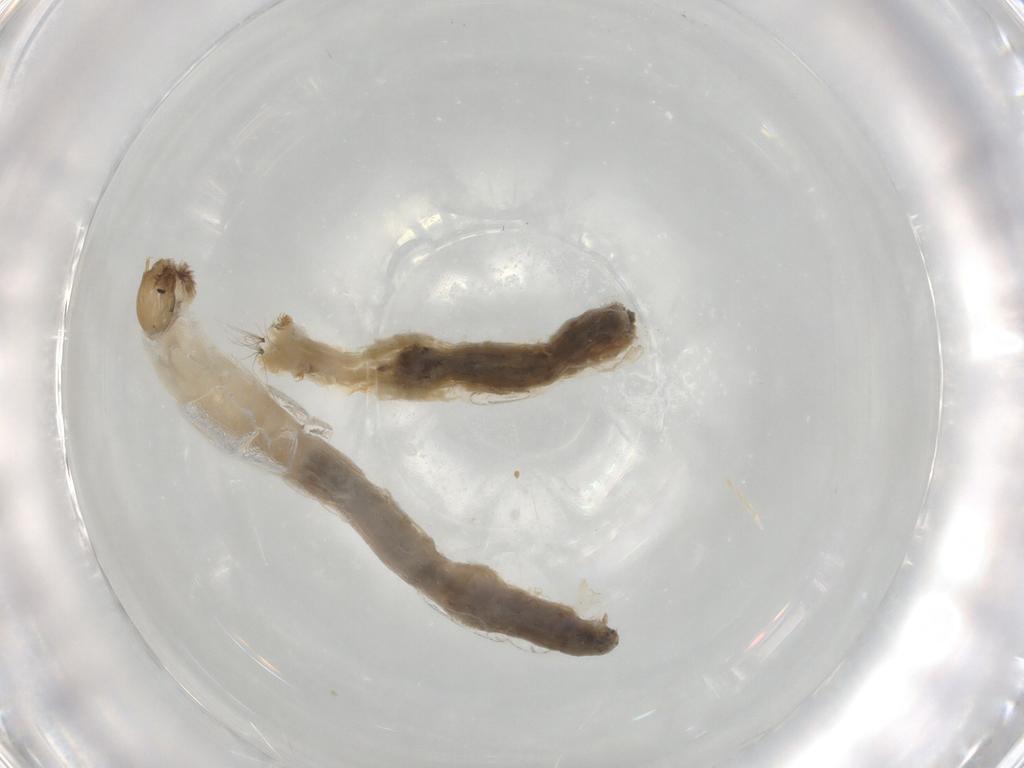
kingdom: Animalia
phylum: Arthropoda
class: Insecta
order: Diptera
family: Chironomidae
